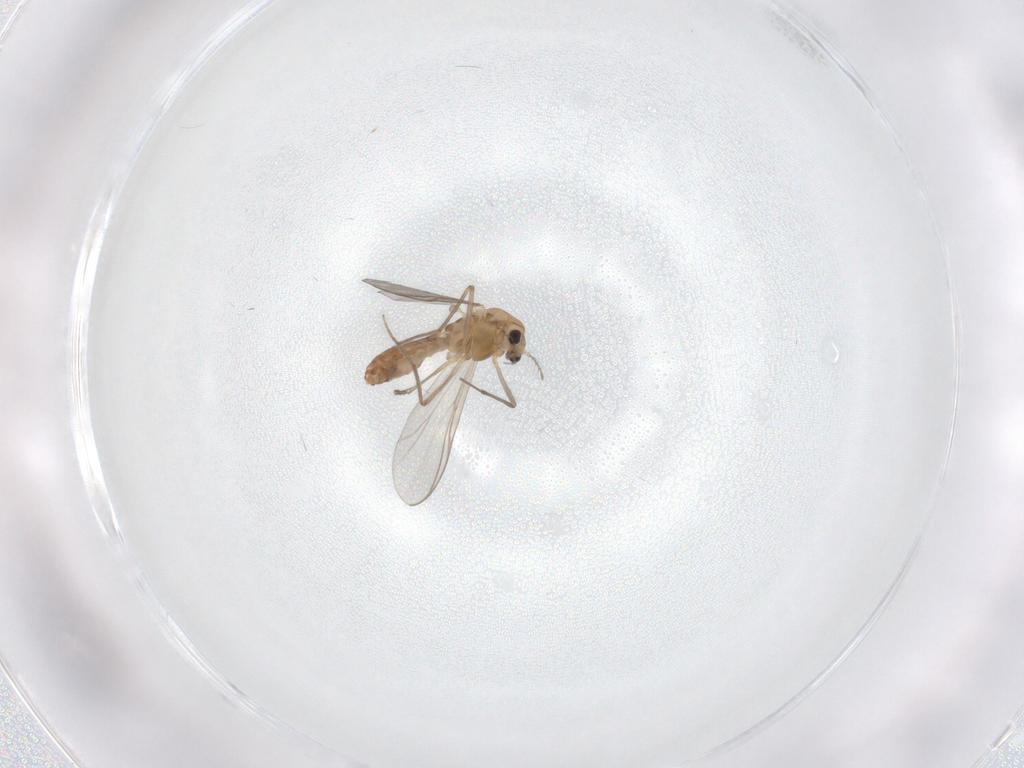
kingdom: Animalia
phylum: Arthropoda
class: Insecta
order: Diptera
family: Chironomidae
